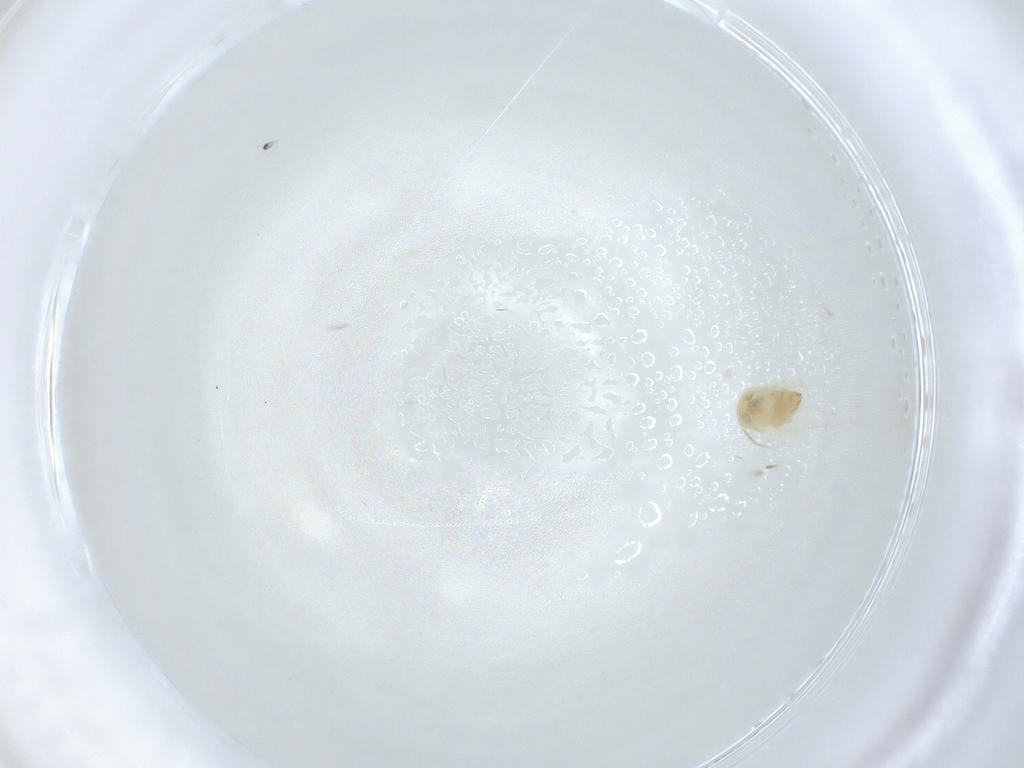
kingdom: Animalia
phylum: Arthropoda
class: Insecta
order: Lepidoptera
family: Nepticulidae
